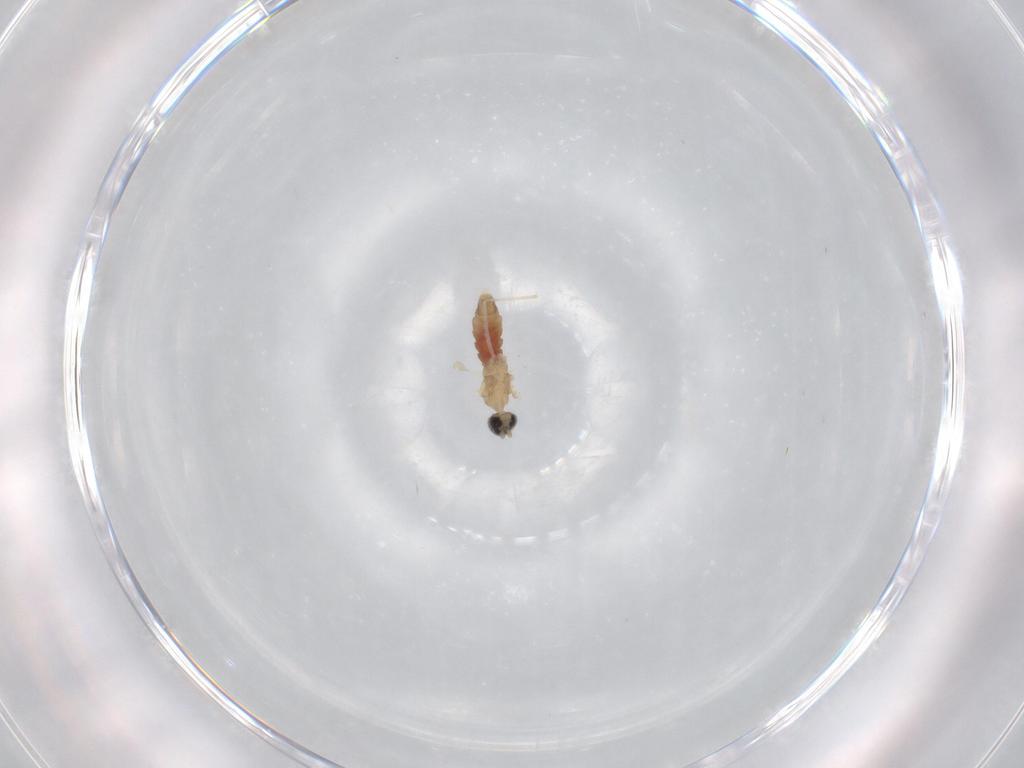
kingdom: Animalia
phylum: Arthropoda
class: Insecta
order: Diptera
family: Cecidomyiidae
